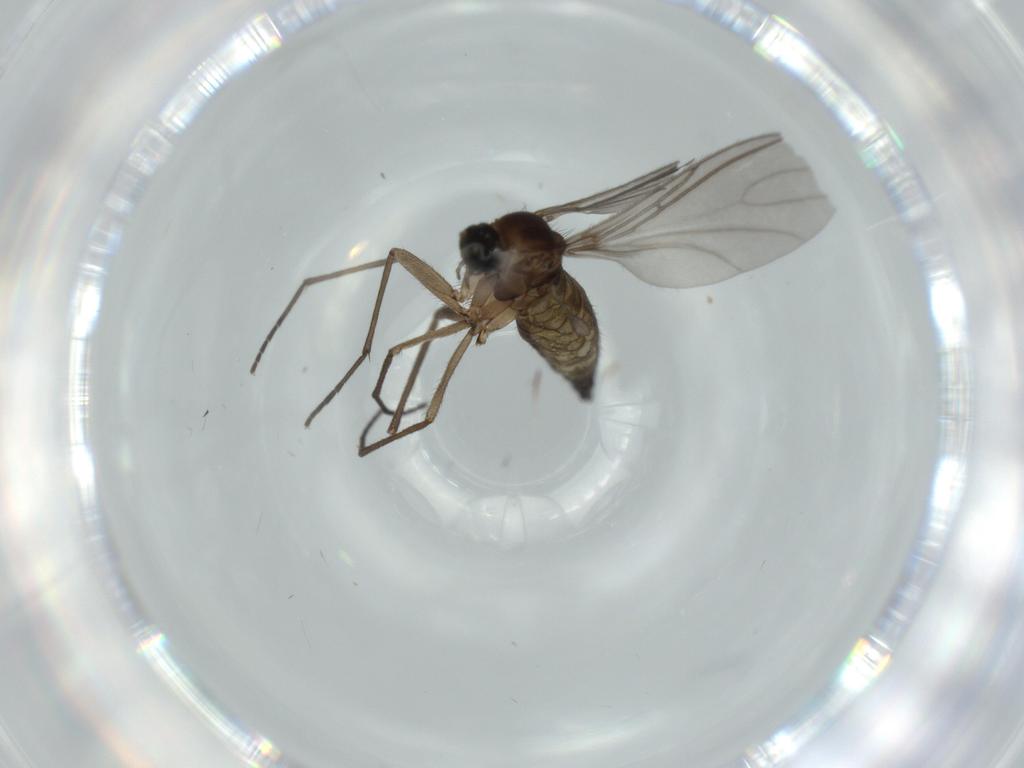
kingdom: Animalia
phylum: Arthropoda
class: Insecta
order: Diptera
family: Sciaridae
